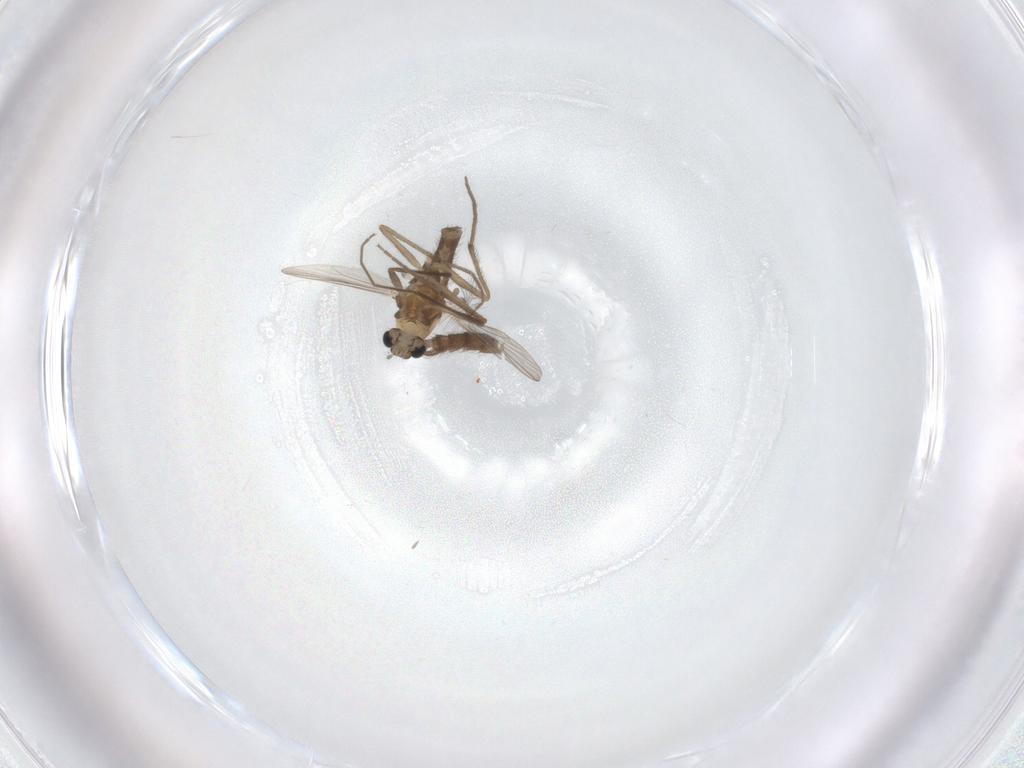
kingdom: Animalia
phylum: Arthropoda
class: Insecta
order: Diptera
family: Chironomidae
